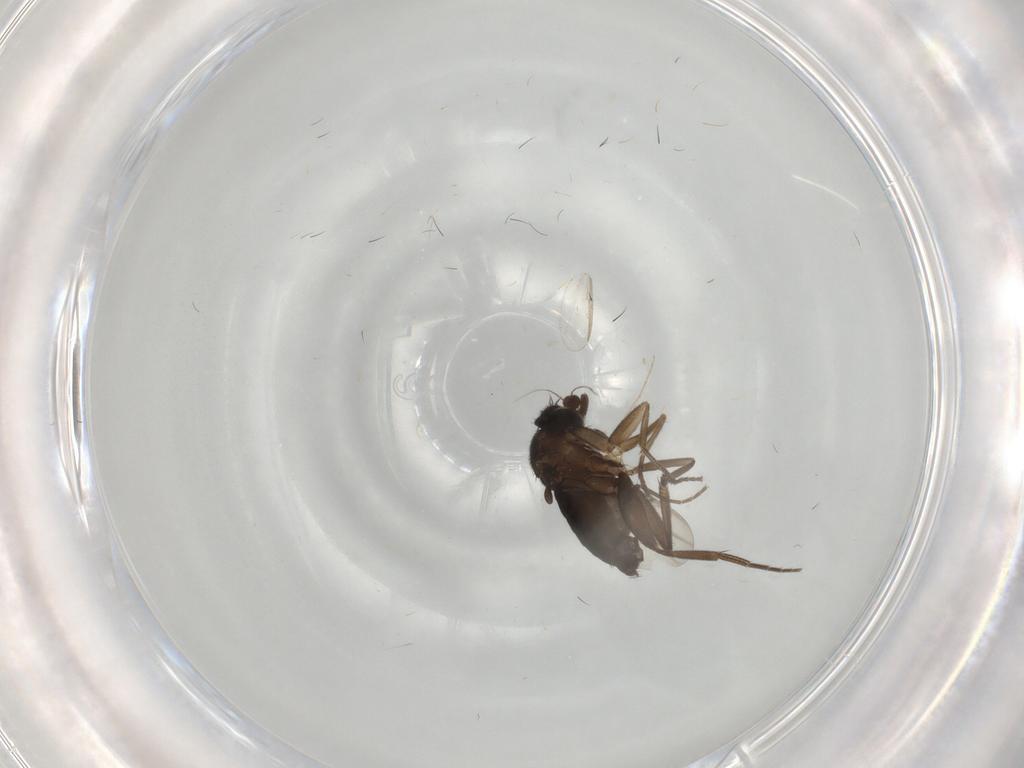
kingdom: Animalia
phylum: Arthropoda
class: Insecta
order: Diptera
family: Phoridae
